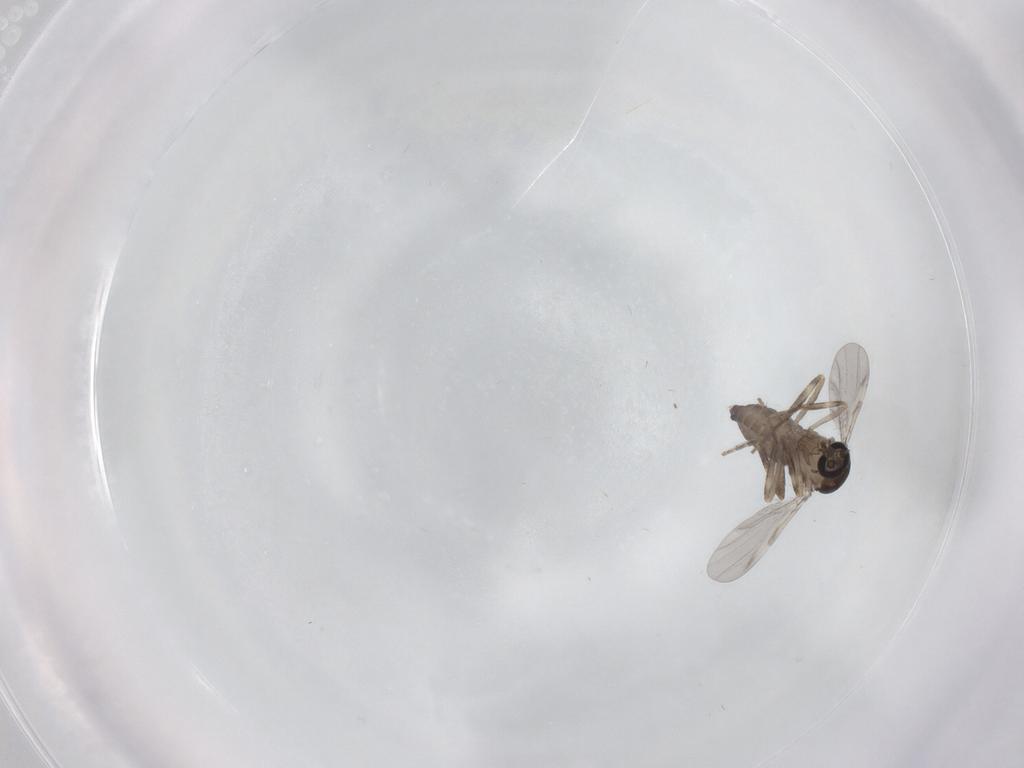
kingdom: Animalia
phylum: Arthropoda
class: Insecta
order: Diptera
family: Ceratopogonidae
